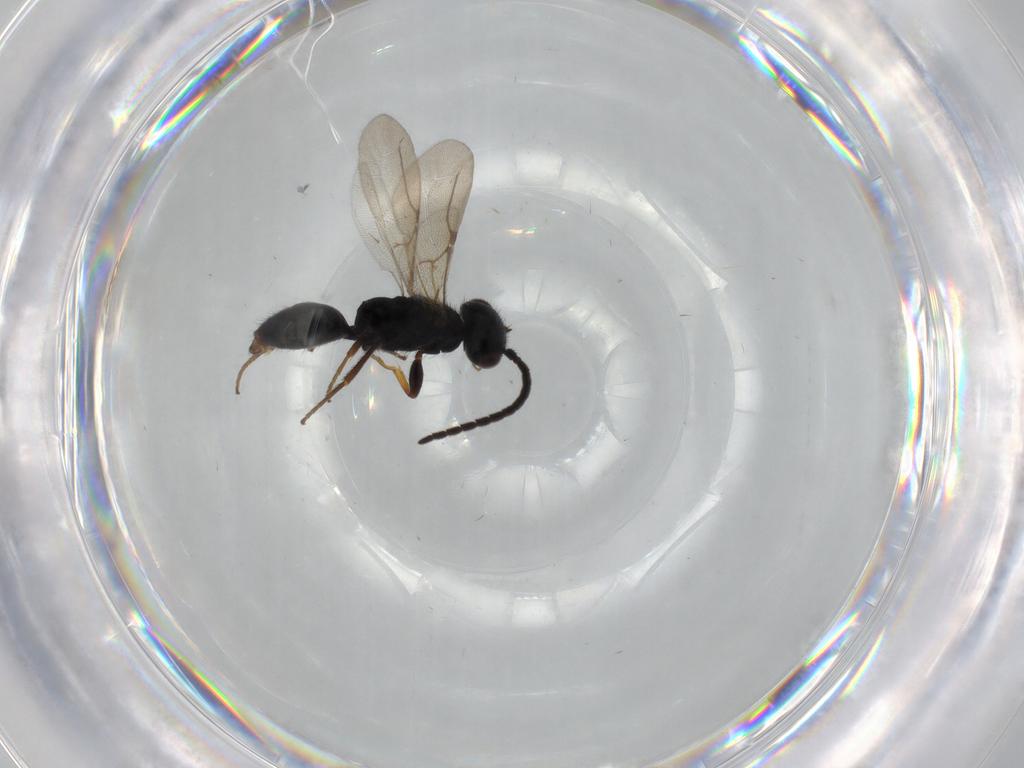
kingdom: Animalia
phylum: Arthropoda
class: Insecta
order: Hymenoptera
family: Bethylidae
